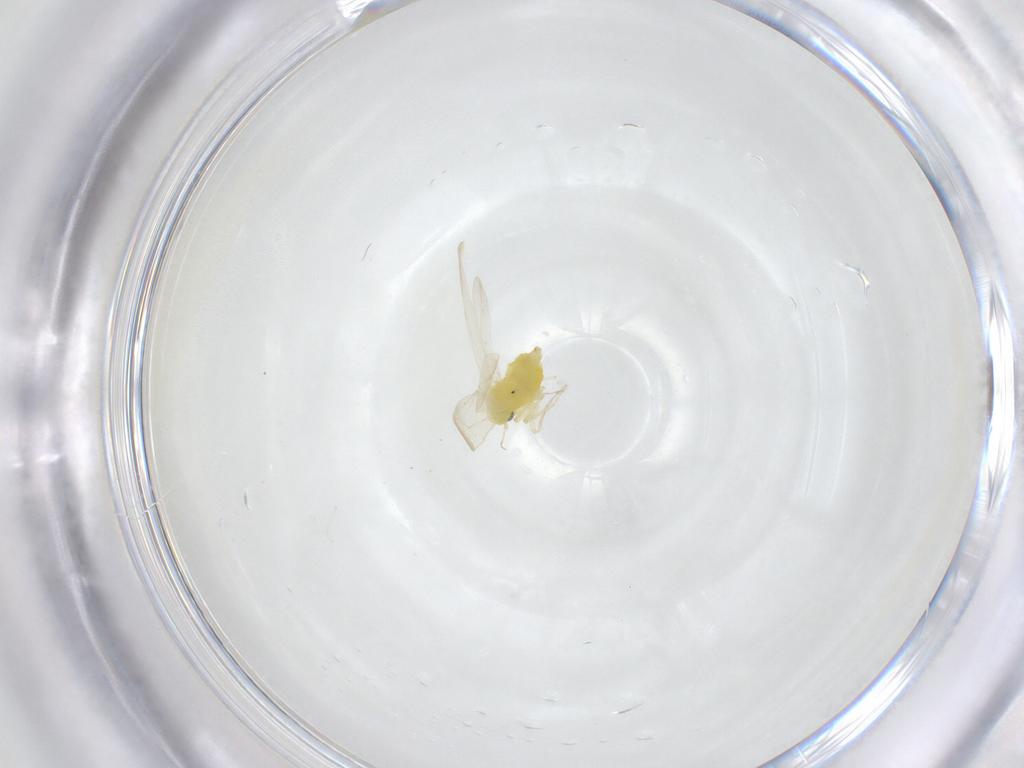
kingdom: Animalia
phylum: Arthropoda
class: Insecta
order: Hemiptera
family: Aleyrodidae
